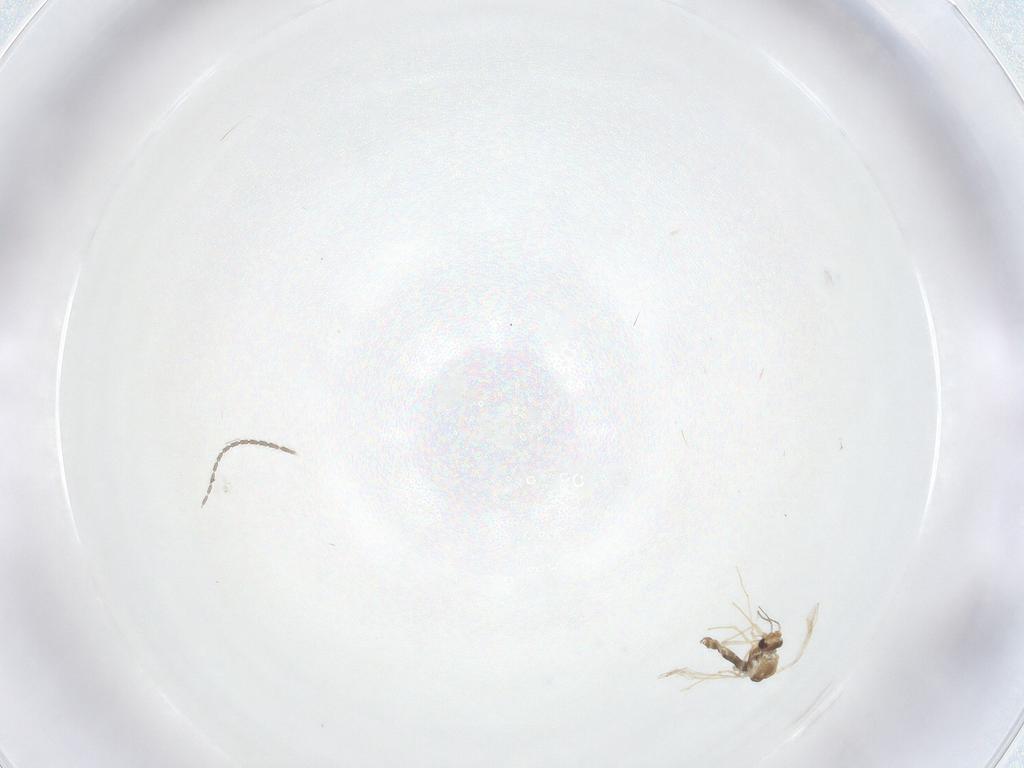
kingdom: Animalia
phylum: Arthropoda
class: Insecta
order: Diptera
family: Cecidomyiidae
